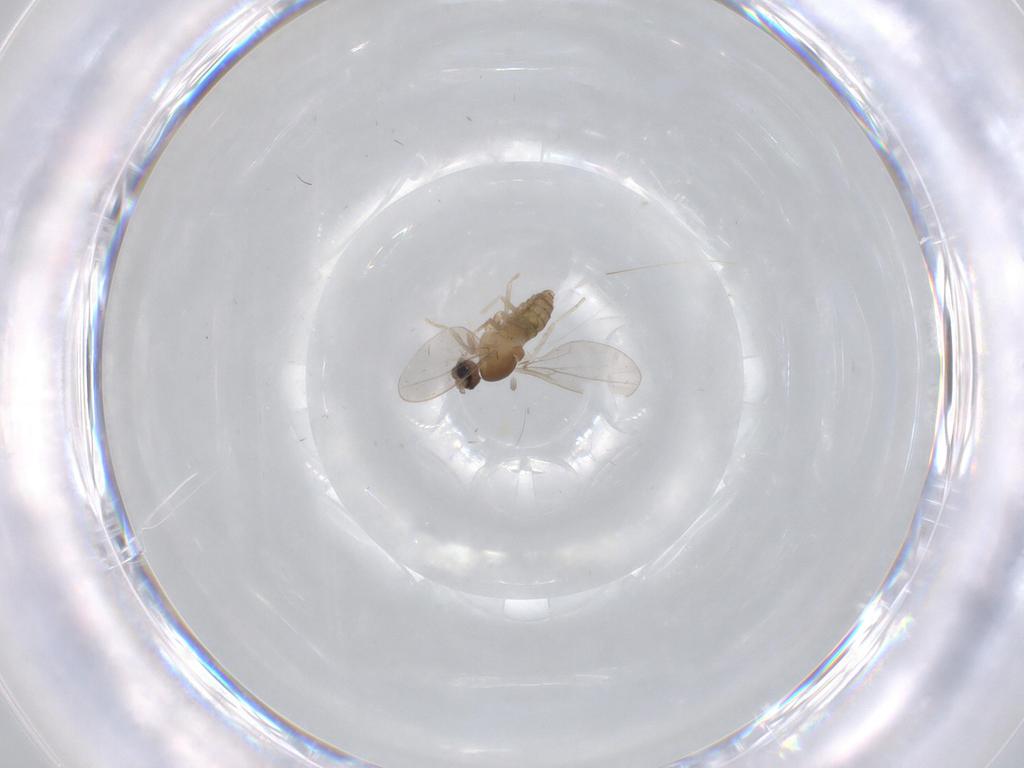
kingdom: Animalia
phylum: Arthropoda
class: Insecta
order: Diptera
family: Cecidomyiidae
